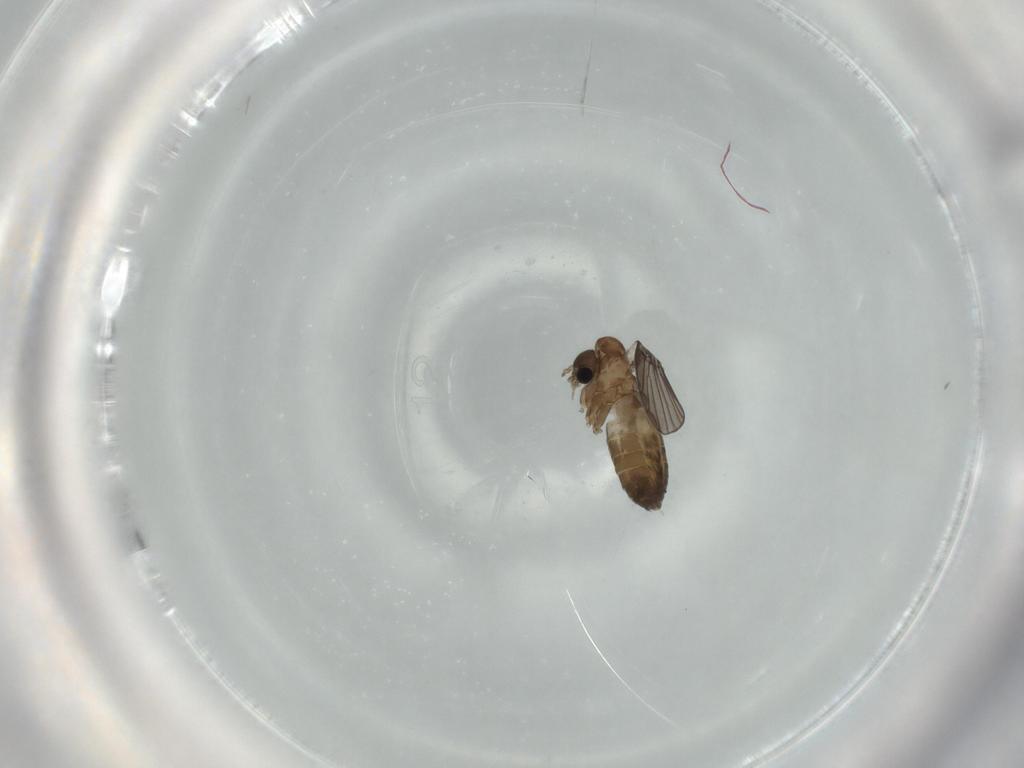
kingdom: Animalia
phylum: Arthropoda
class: Insecta
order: Diptera
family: Psychodidae
